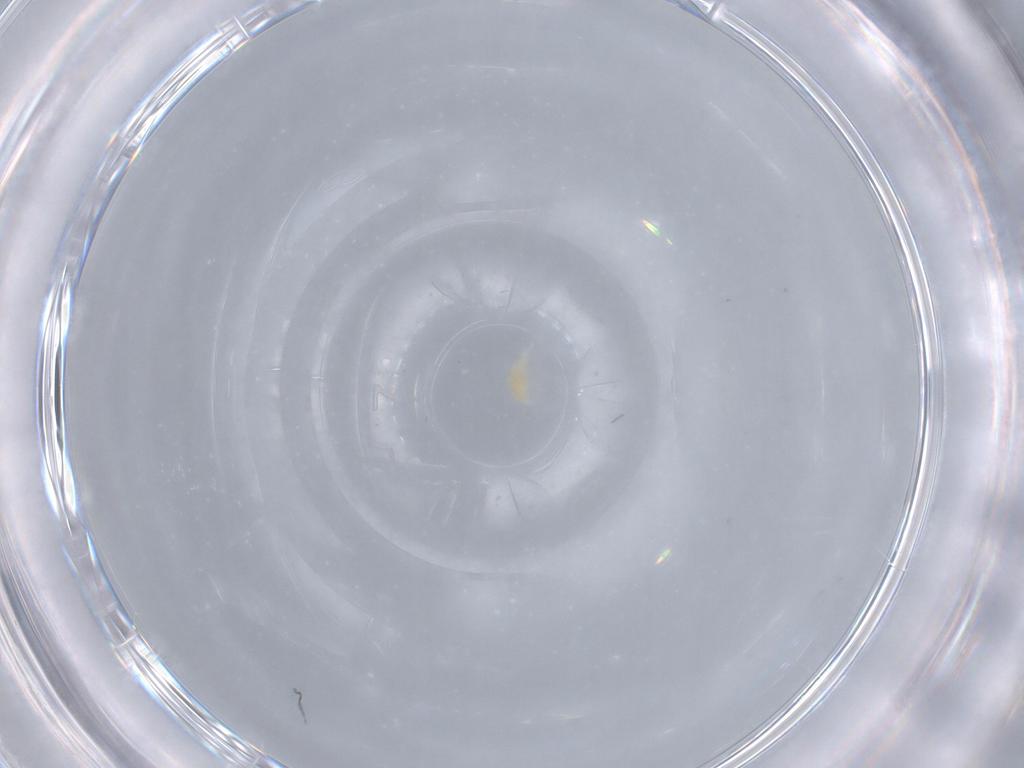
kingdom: Animalia
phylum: Arthropoda
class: Arachnida
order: Trombidiformes
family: Stigmaeidae
